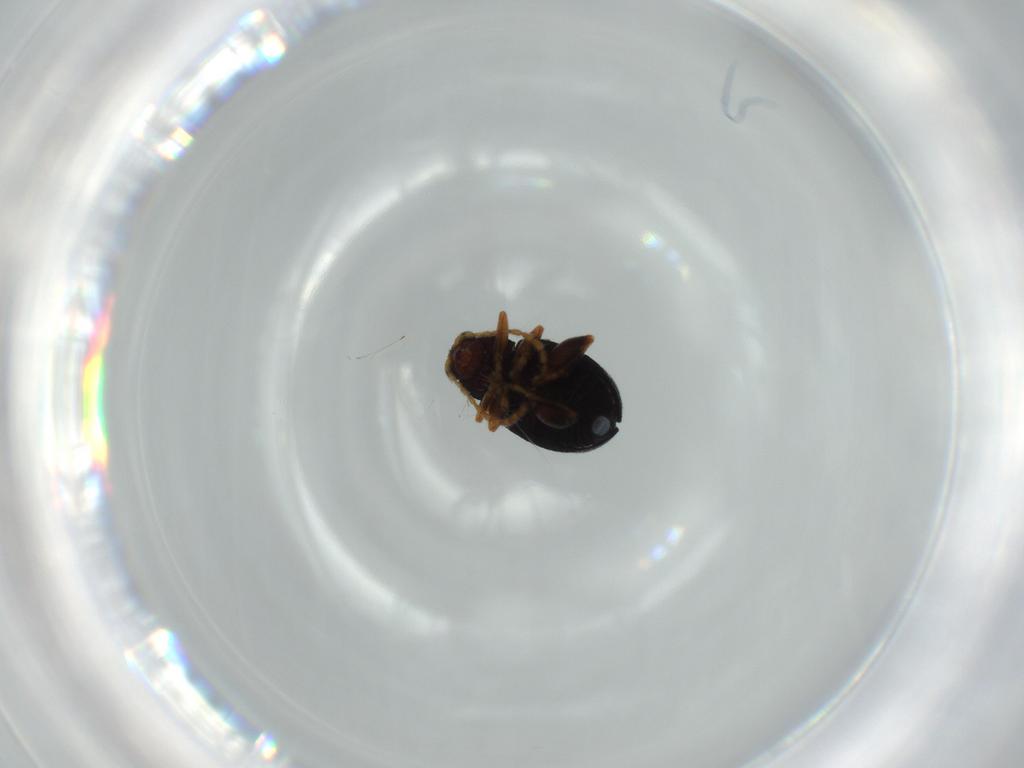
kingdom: Animalia
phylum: Arthropoda
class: Insecta
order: Coleoptera
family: Chrysomelidae
